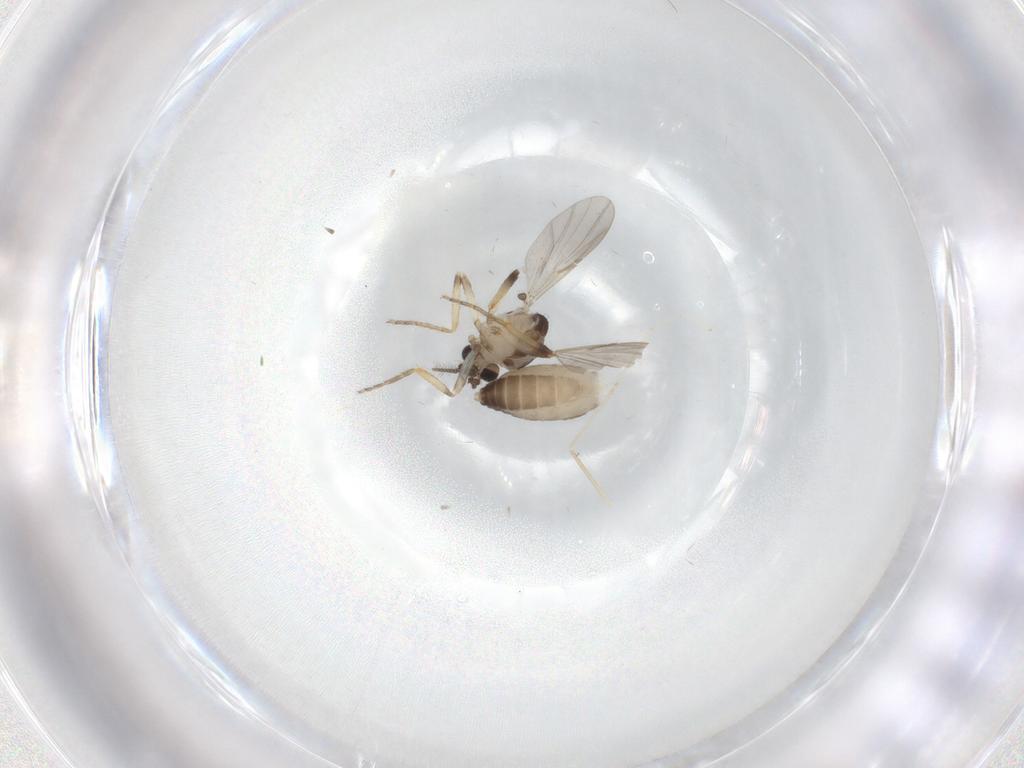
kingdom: Animalia
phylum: Arthropoda
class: Insecta
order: Diptera
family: Ceratopogonidae
